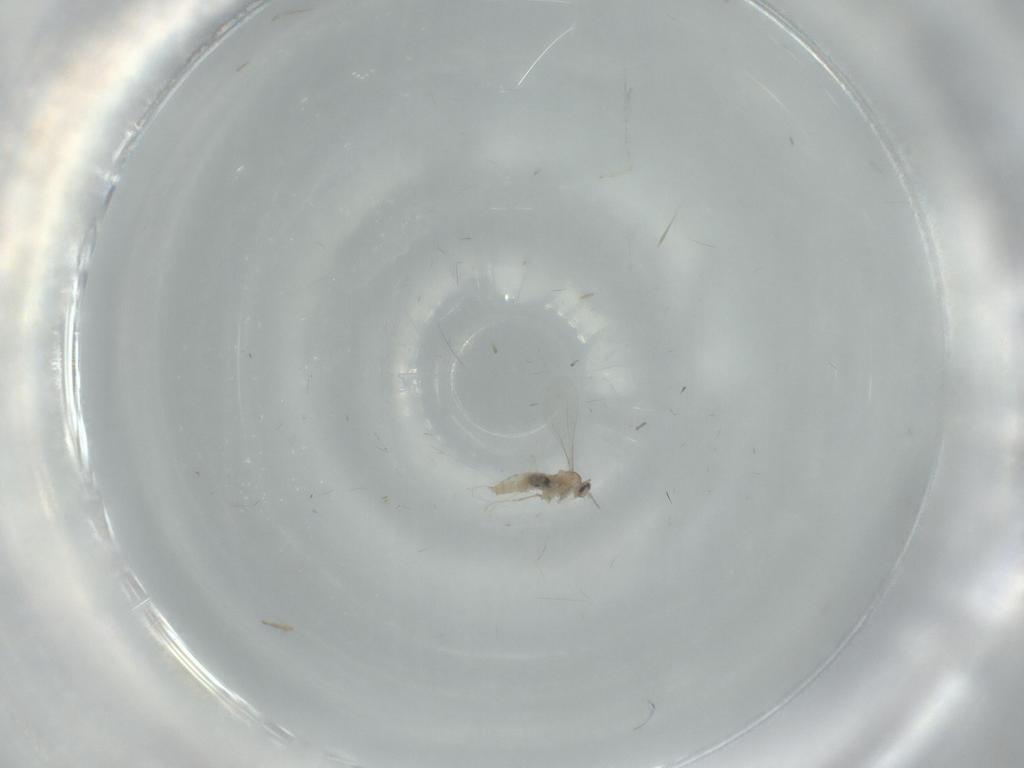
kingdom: Animalia
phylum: Arthropoda
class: Insecta
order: Diptera
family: Cecidomyiidae
